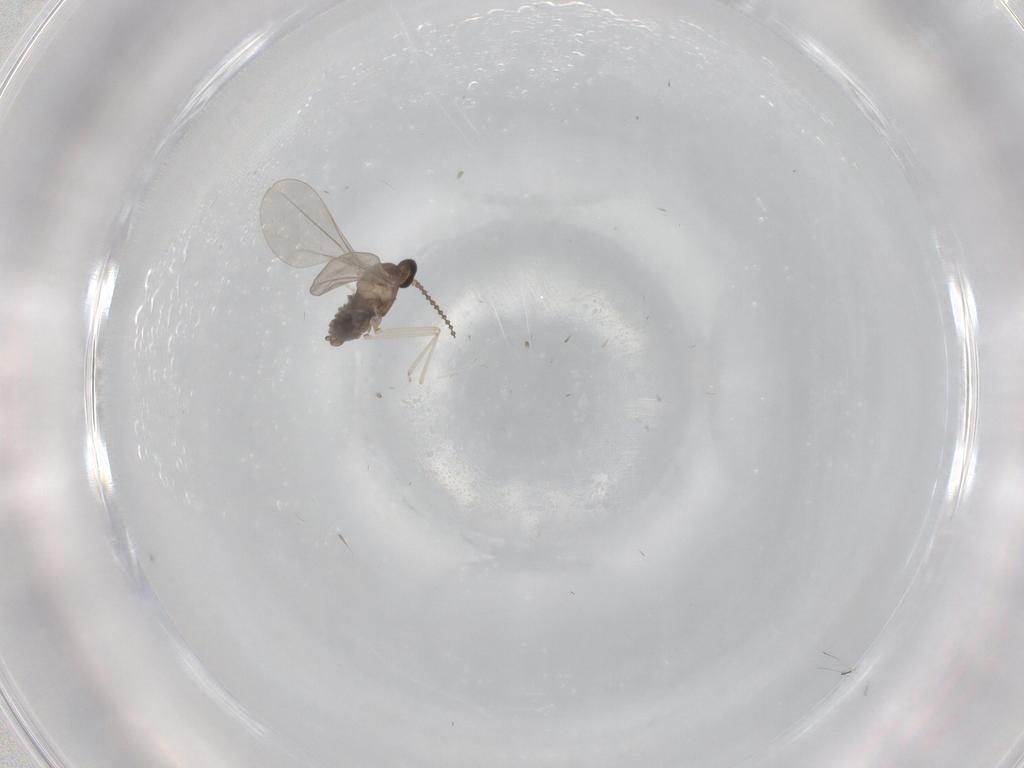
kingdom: Animalia
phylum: Arthropoda
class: Insecta
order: Diptera
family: Cecidomyiidae
